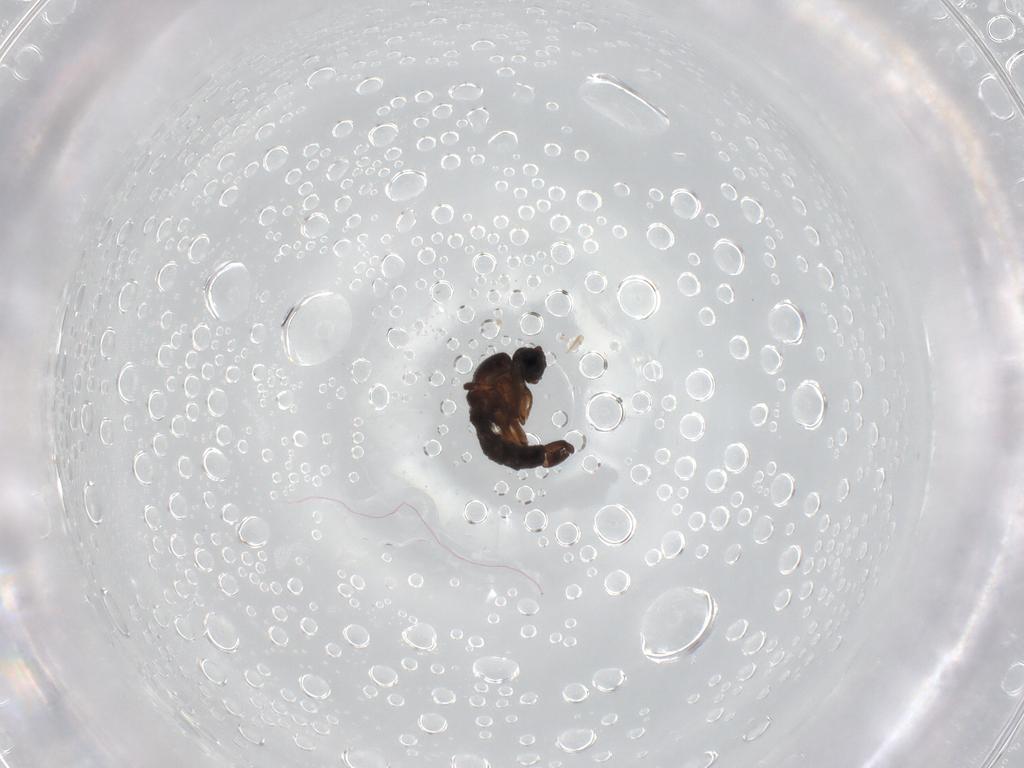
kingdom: Animalia
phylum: Arthropoda
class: Insecta
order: Diptera
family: Sciaridae
